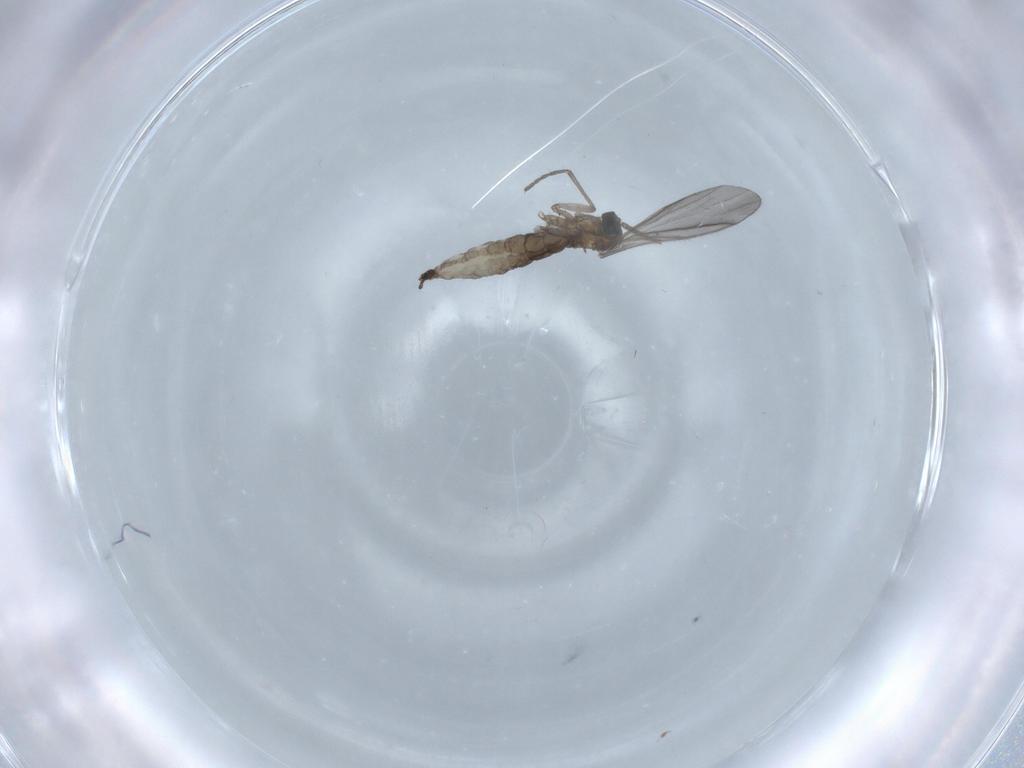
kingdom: Animalia
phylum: Arthropoda
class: Insecta
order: Diptera
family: Sciaridae
